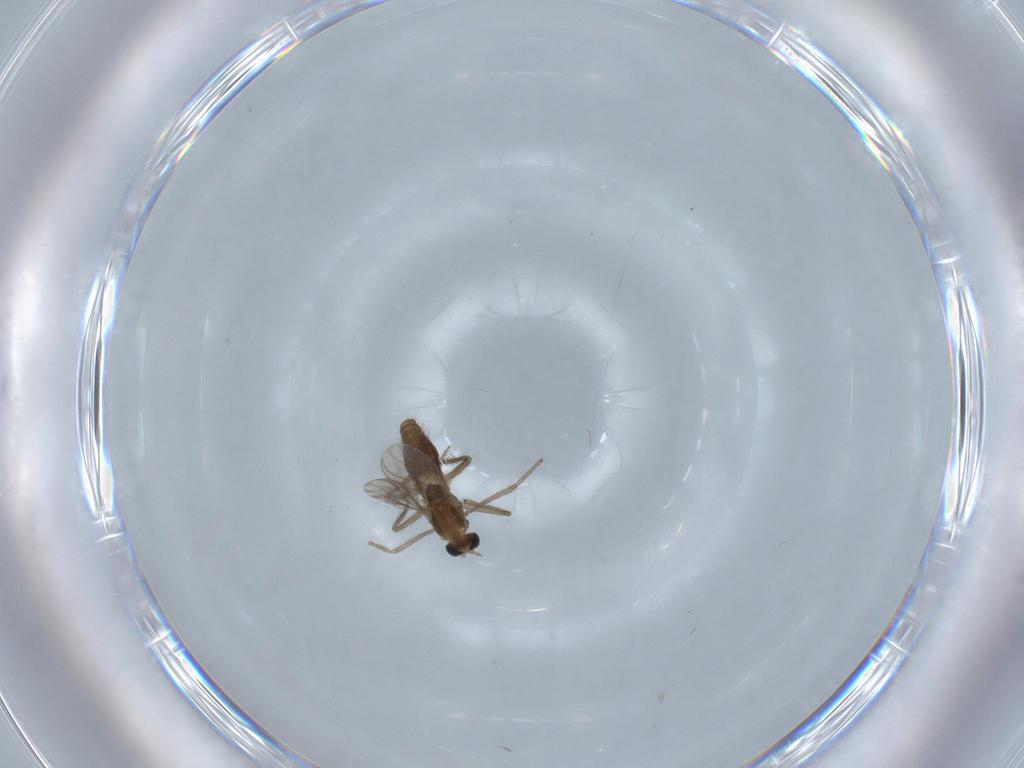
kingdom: Animalia
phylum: Arthropoda
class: Insecta
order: Diptera
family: Chironomidae
